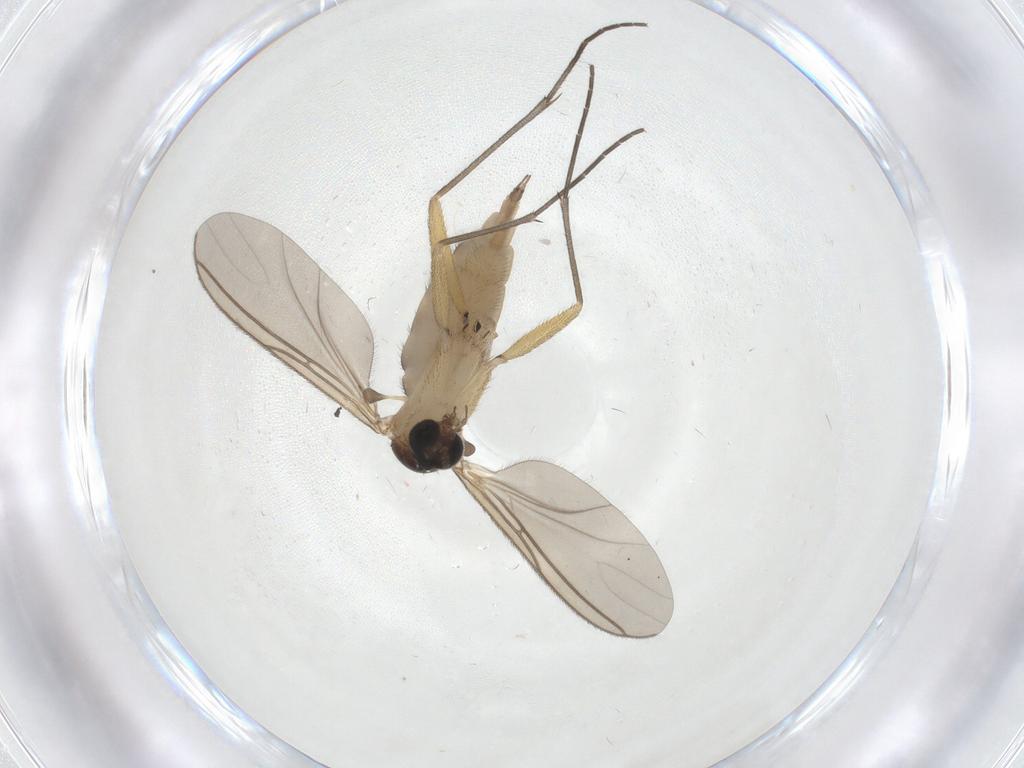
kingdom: Animalia
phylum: Arthropoda
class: Insecta
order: Diptera
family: Sciaridae
